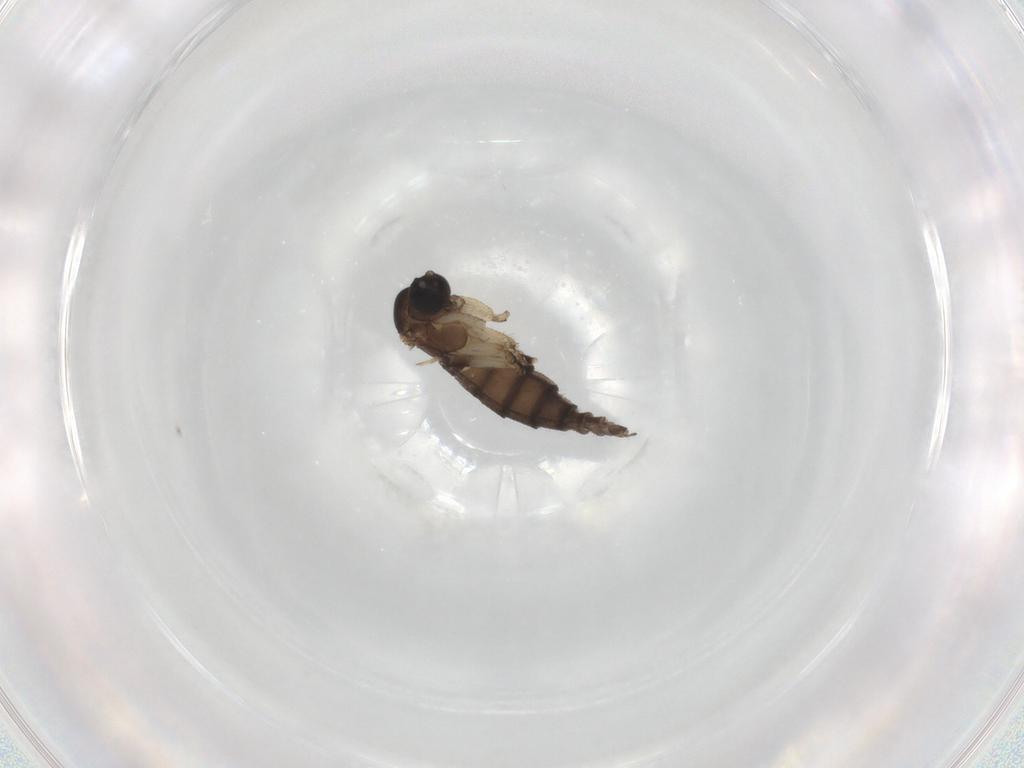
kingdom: Animalia
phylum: Arthropoda
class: Insecta
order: Diptera
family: Sciaridae
